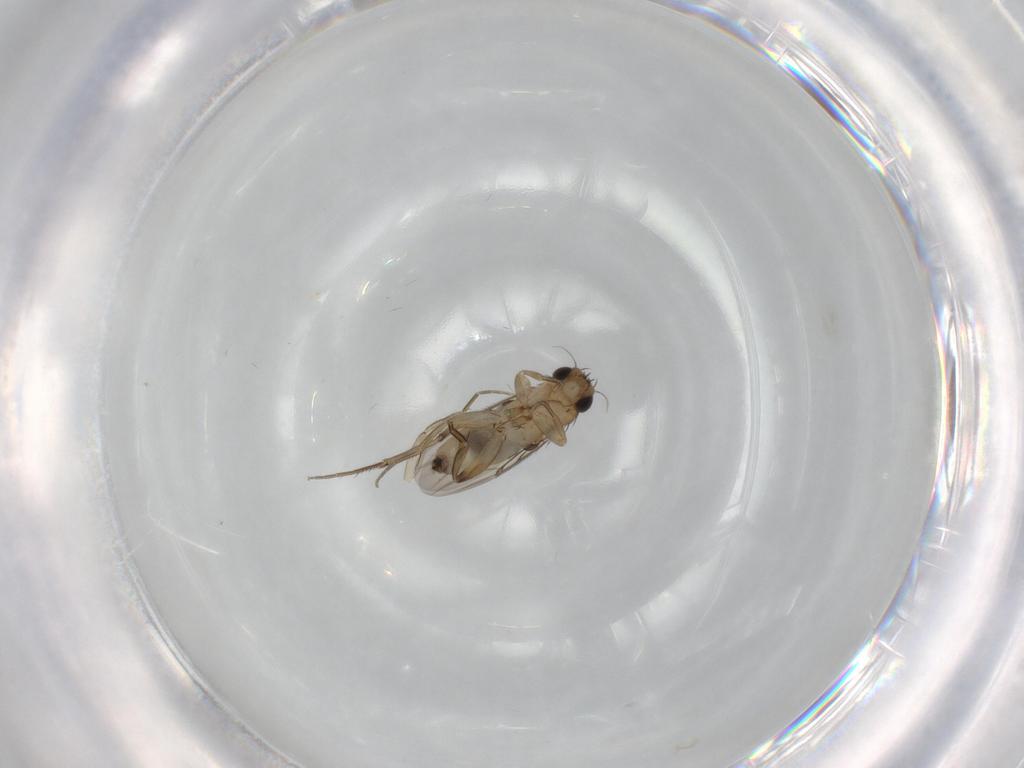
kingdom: Animalia
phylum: Arthropoda
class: Insecta
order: Diptera
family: Phoridae
